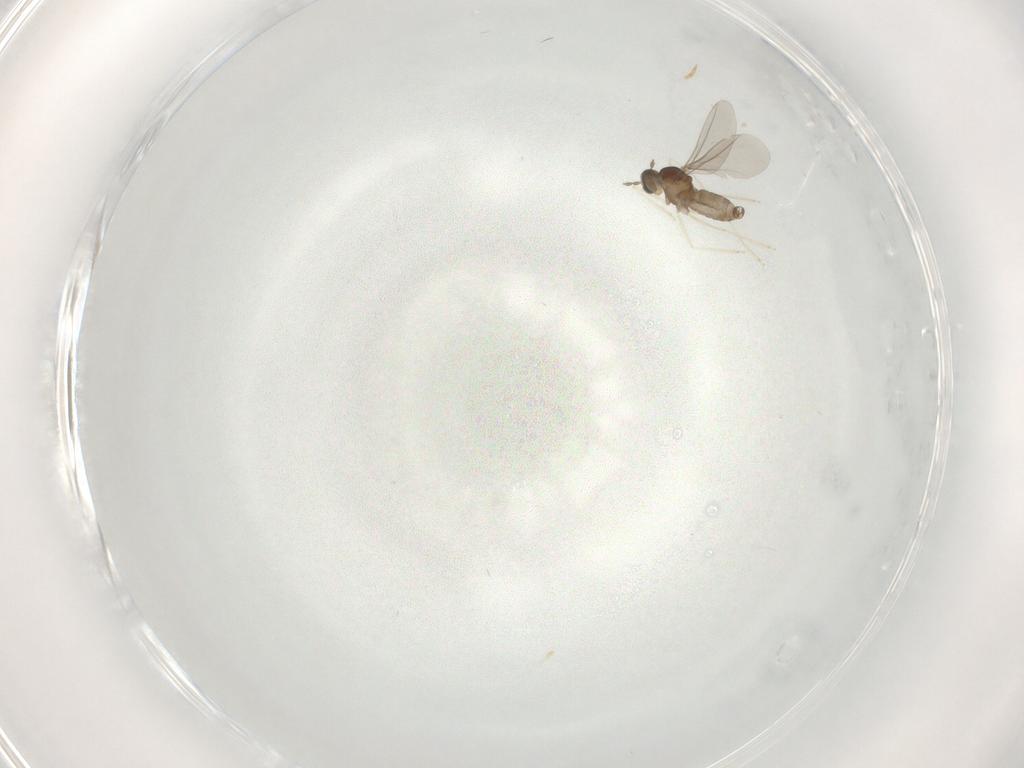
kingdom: Animalia
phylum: Arthropoda
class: Insecta
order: Diptera
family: Cecidomyiidae
